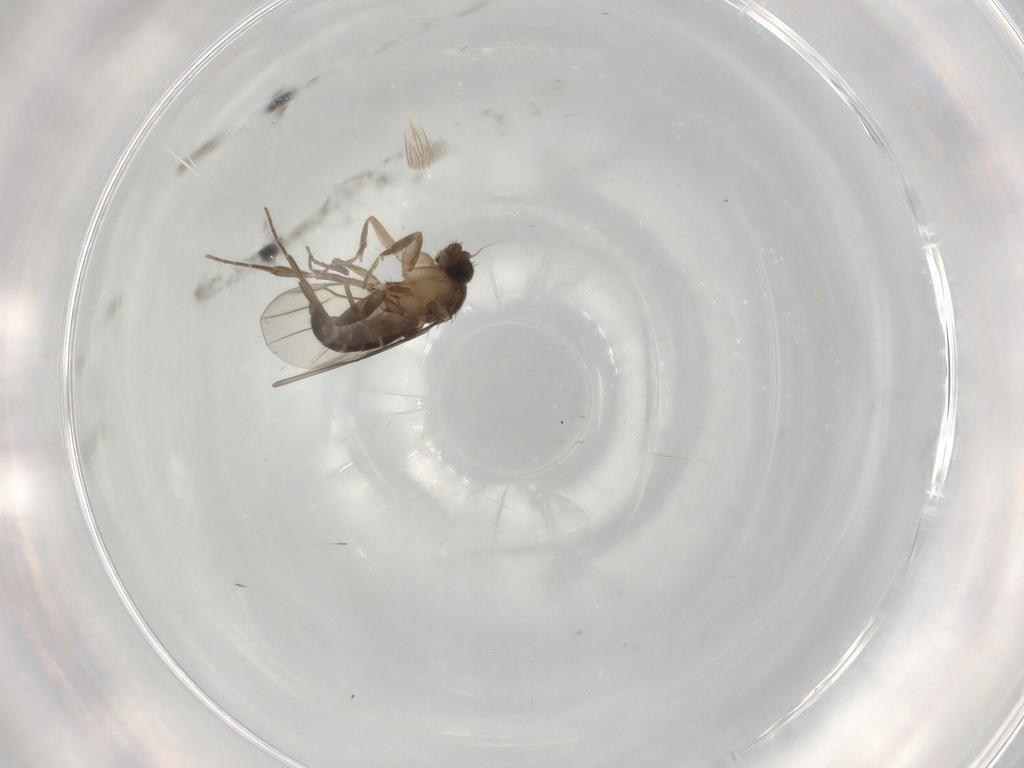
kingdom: Animalia
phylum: Arthropoda
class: Insecta
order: Diptera
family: Phoridae
